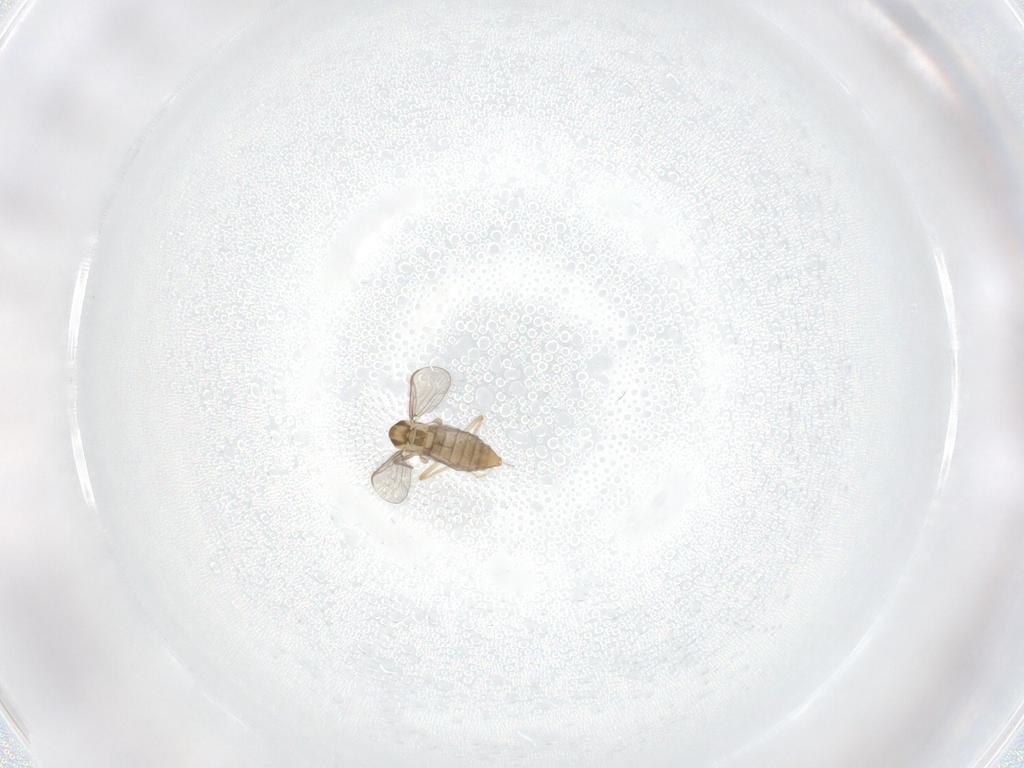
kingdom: Animalia
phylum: Arthropoda
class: Insecta
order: Diptera
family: Chironomidae
